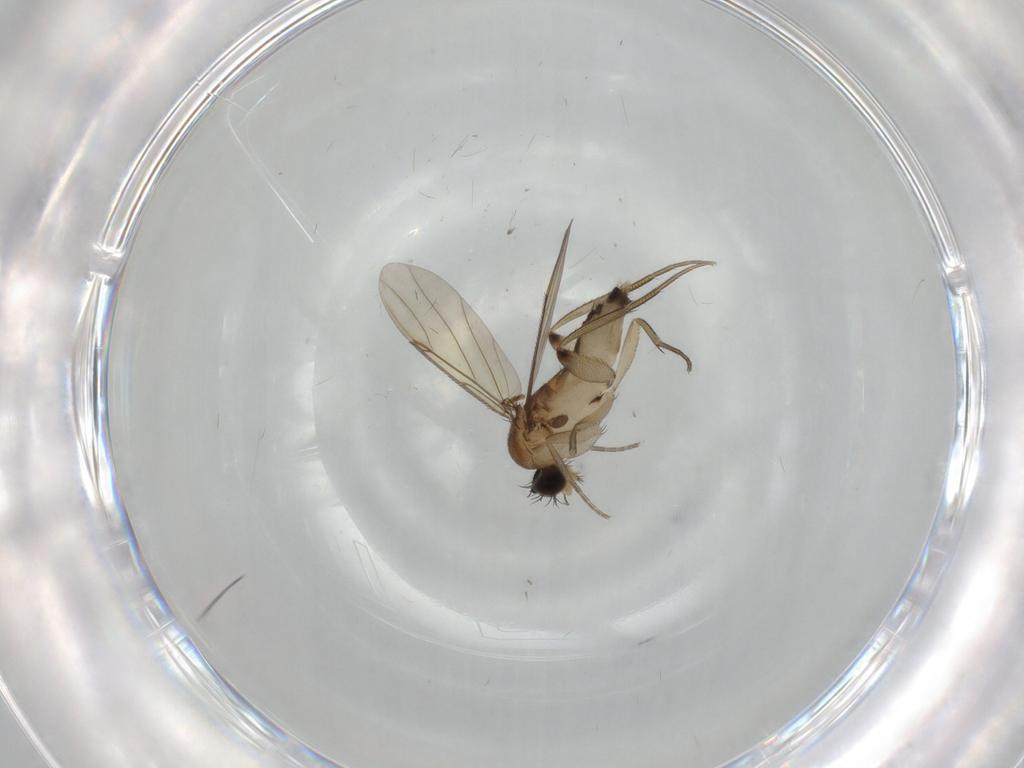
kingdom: Animalia
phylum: Arthropoda
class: Insecta
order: Diptera
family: Phoridae
